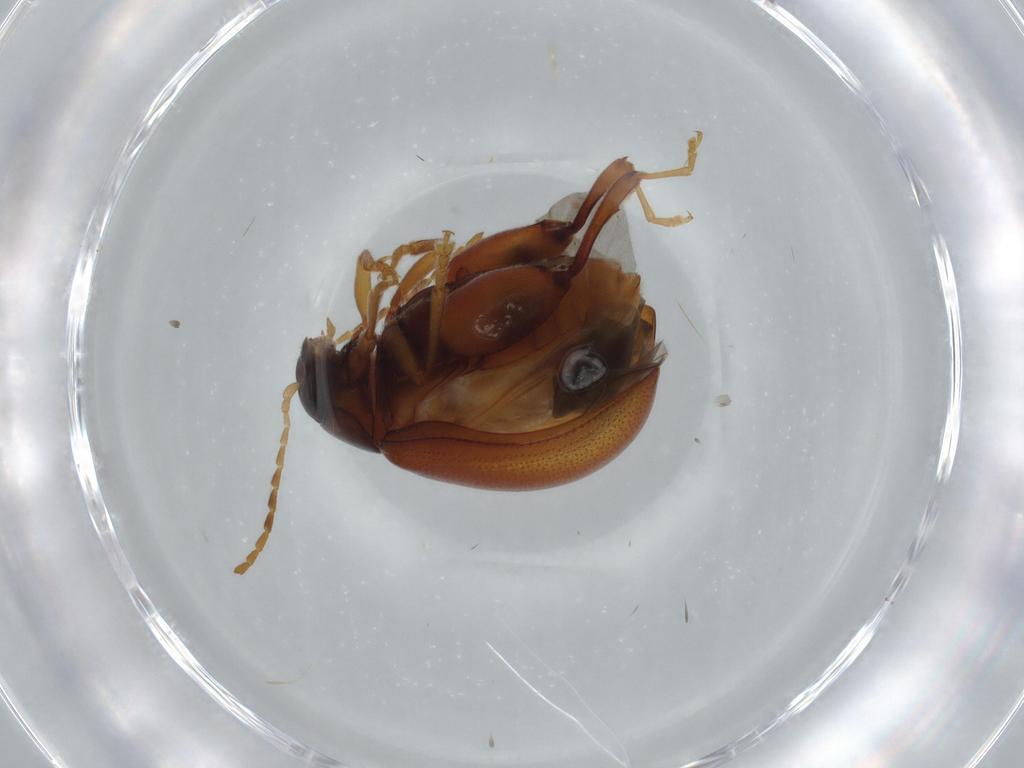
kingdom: Animalia
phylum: Arthropoda
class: Insecta
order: Coleoptera
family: Chrysomelidae
